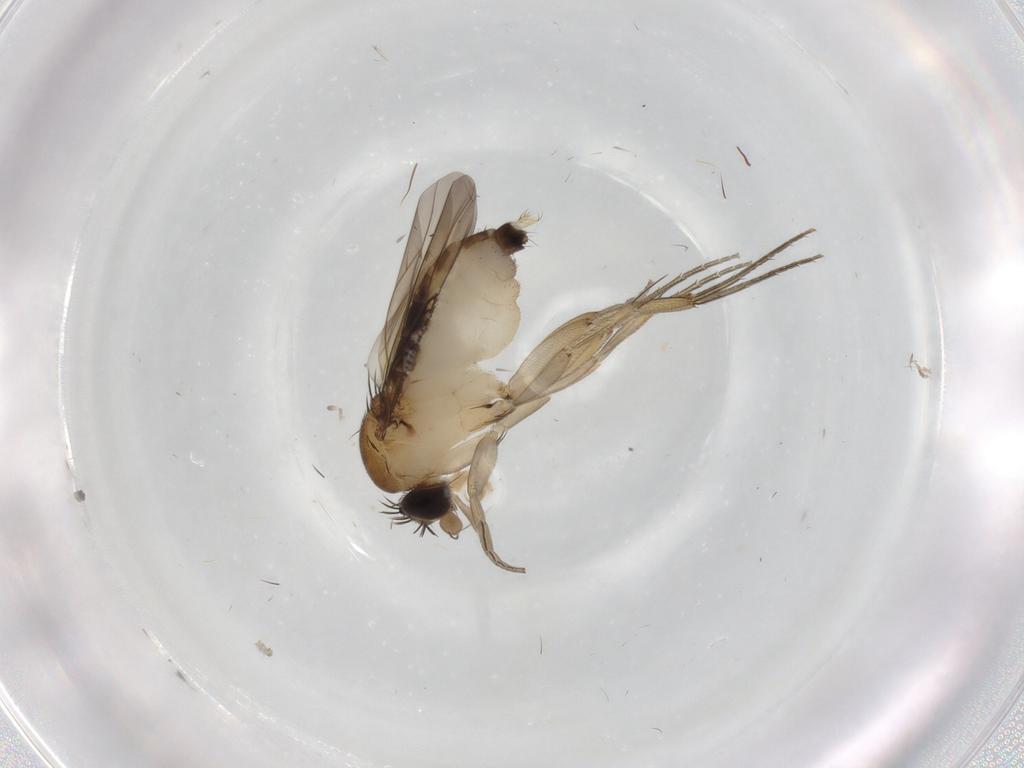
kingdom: Animalia
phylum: Arthropoda
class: Insecta
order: Diptera
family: Phoridae
